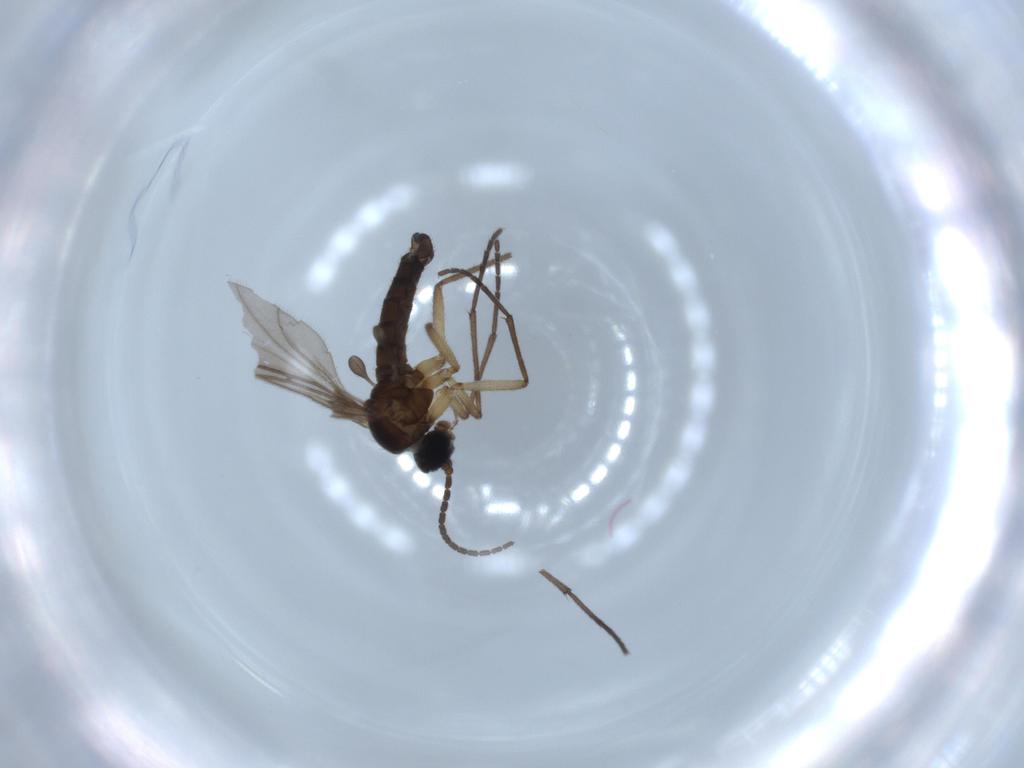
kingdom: Animalia
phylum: Arthropoda
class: Insecta
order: Diptera
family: Sciaridae
